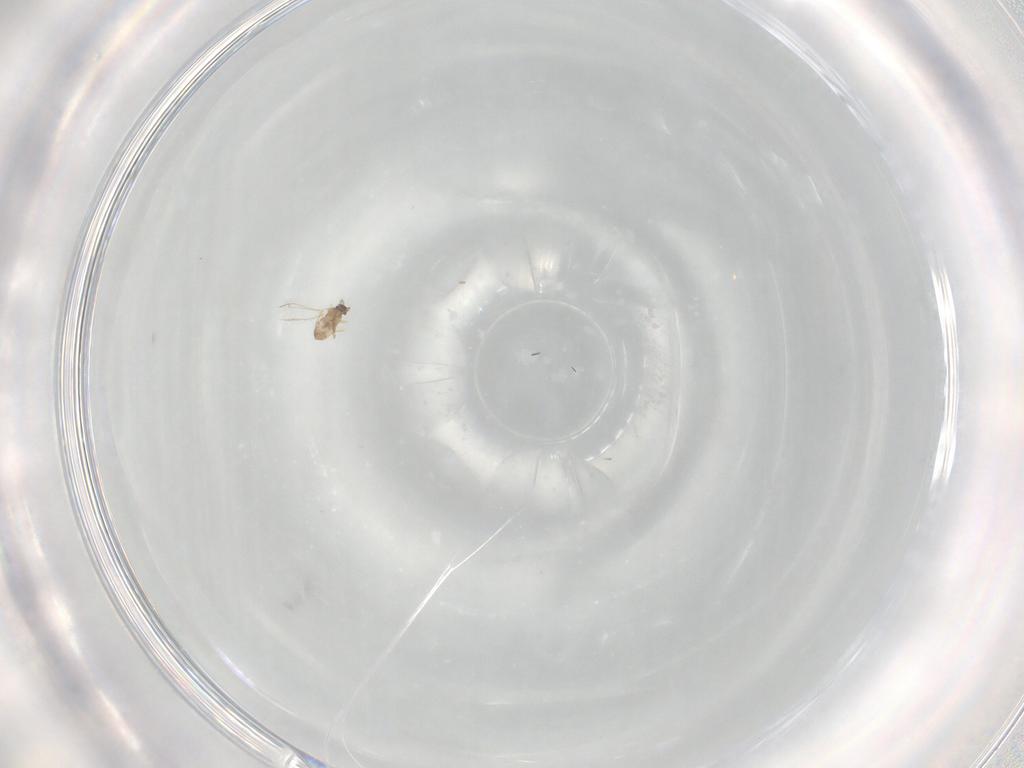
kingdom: Animalia
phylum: Arthropoda
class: Insecta
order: Hymenoptera
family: Mymaridae
